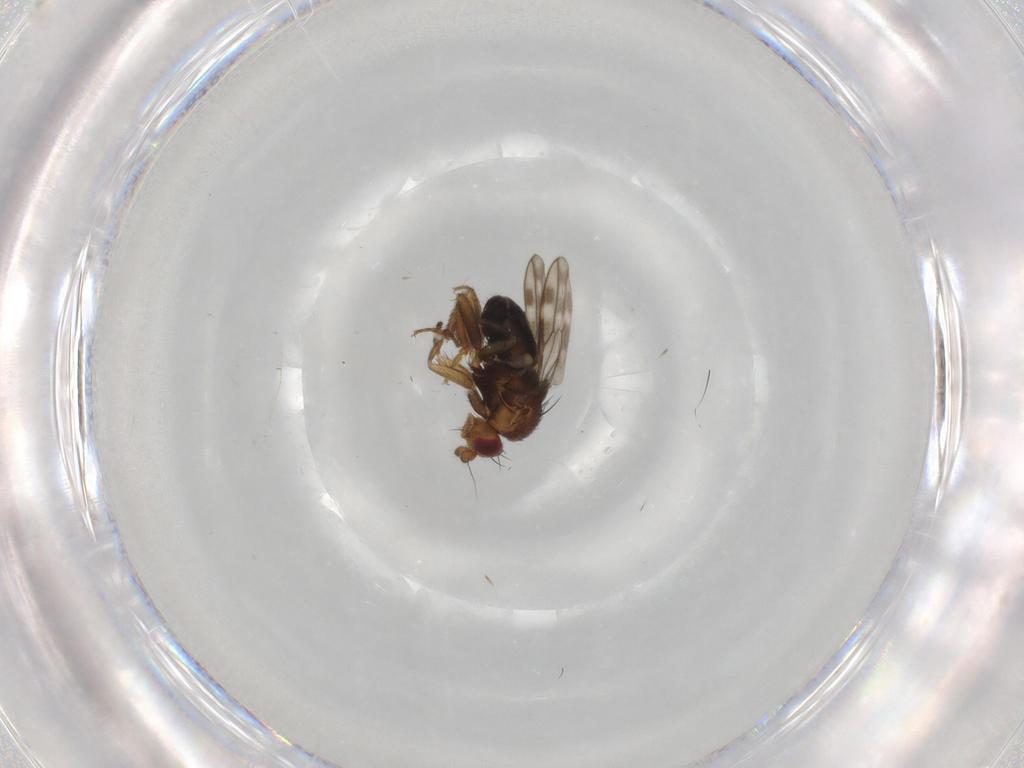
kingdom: Animalia
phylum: Arthropoda
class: Insecta
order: Diptera
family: Sphaeroceridae
